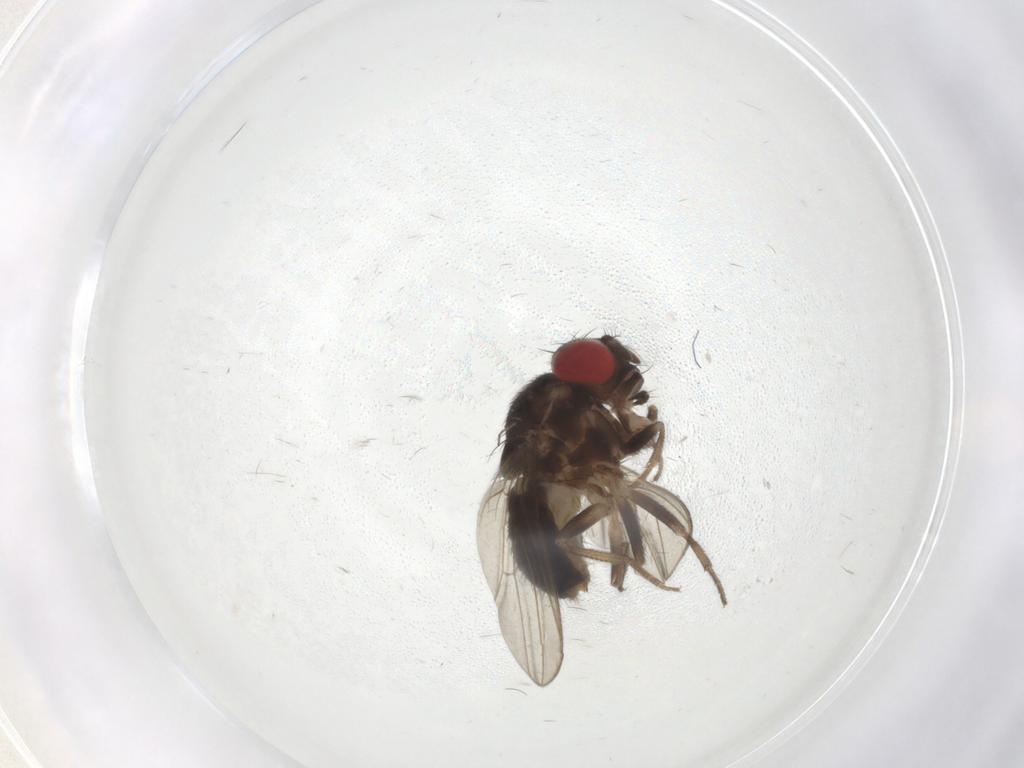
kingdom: Animalia
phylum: Arthropoda
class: Insecta
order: Diptera
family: Drosophilidae
